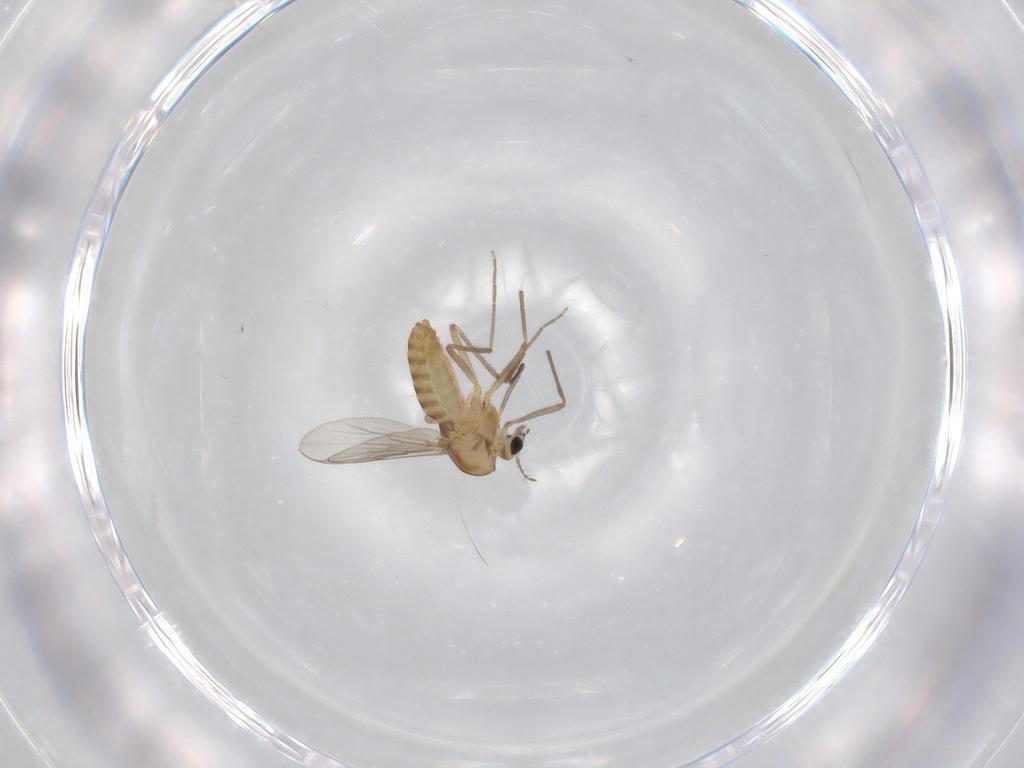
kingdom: Animalia
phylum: Arthropoda
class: Insecta
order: Diptera
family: Chironomidae
